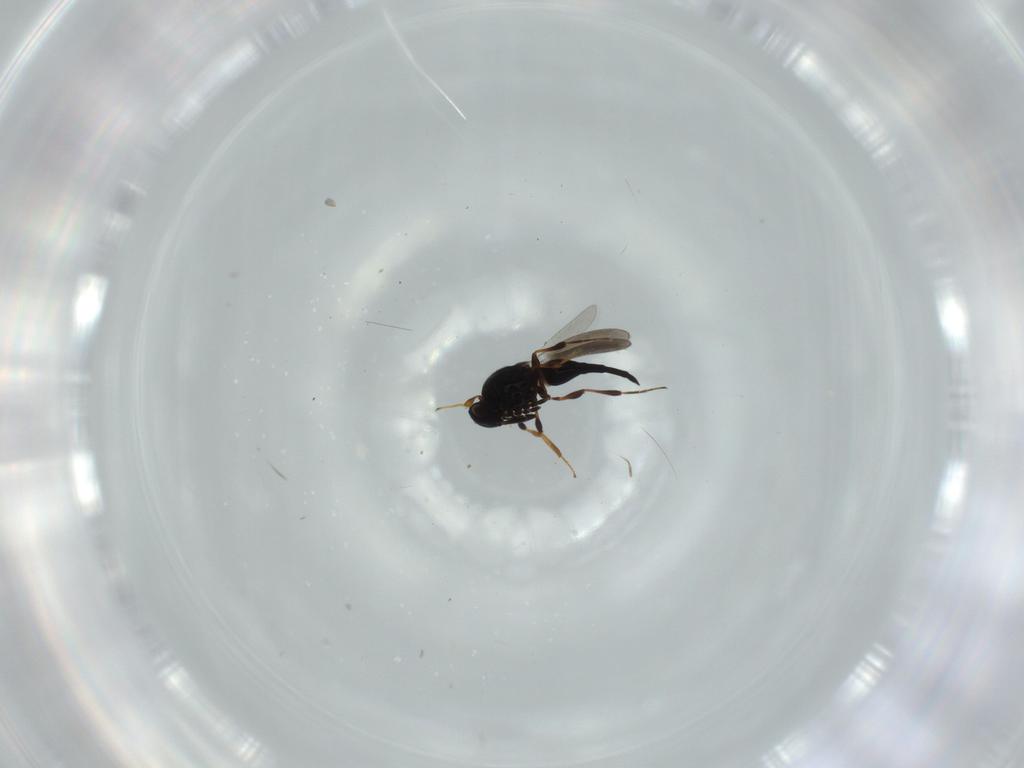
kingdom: Animalia
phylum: Arthropoda
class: Insecta
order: Hymenoptera
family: Platygastridae
